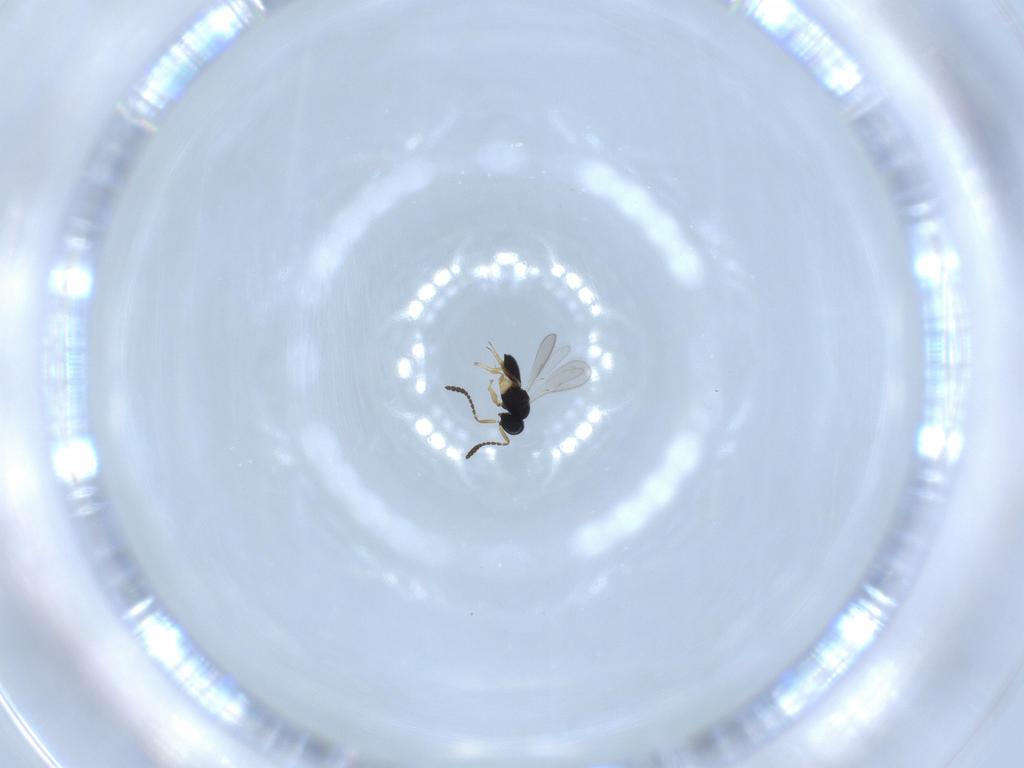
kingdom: Animalia
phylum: Arthropoda
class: Insecta
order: Hymenoptera
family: Scelionidae
